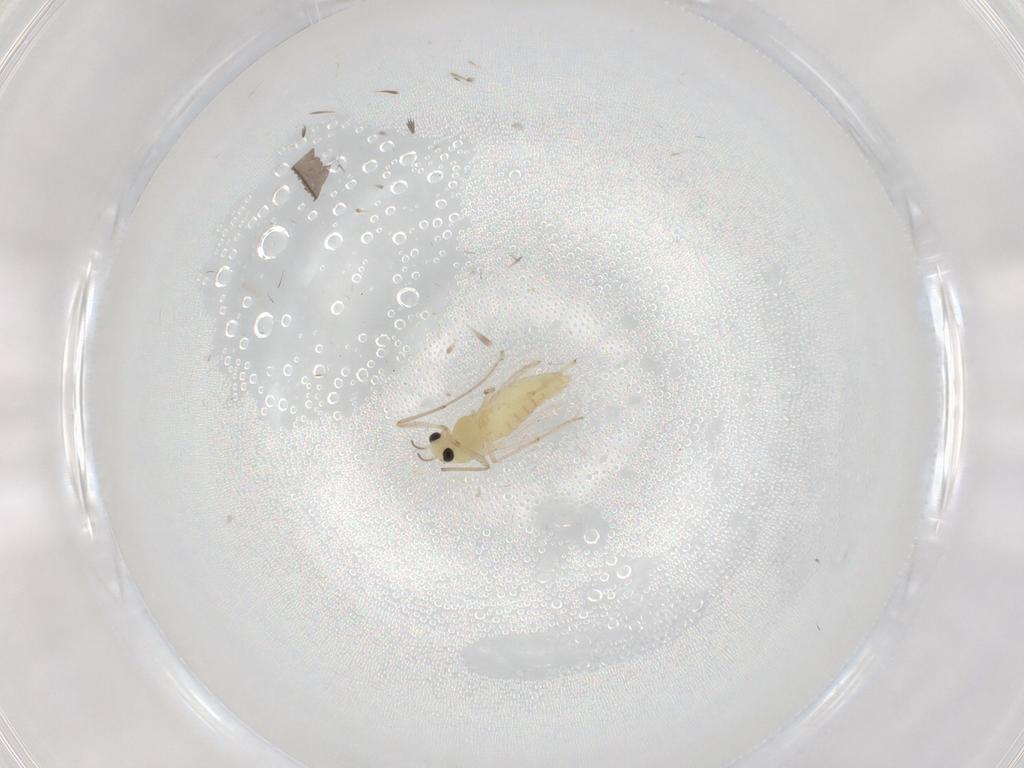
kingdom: Animalia
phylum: Arthropoda
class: Insecta
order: Diptera
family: Chironomidae
